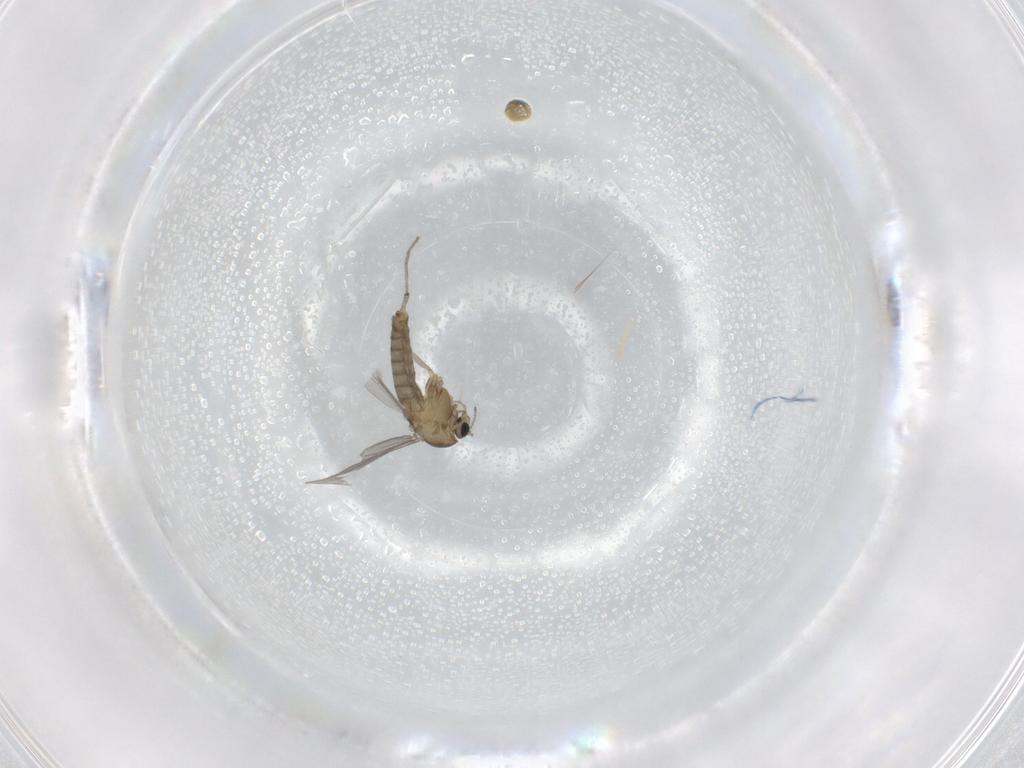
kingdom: Animalia
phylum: Arthropoda
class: Insecta
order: Diptera
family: Chironomidae
